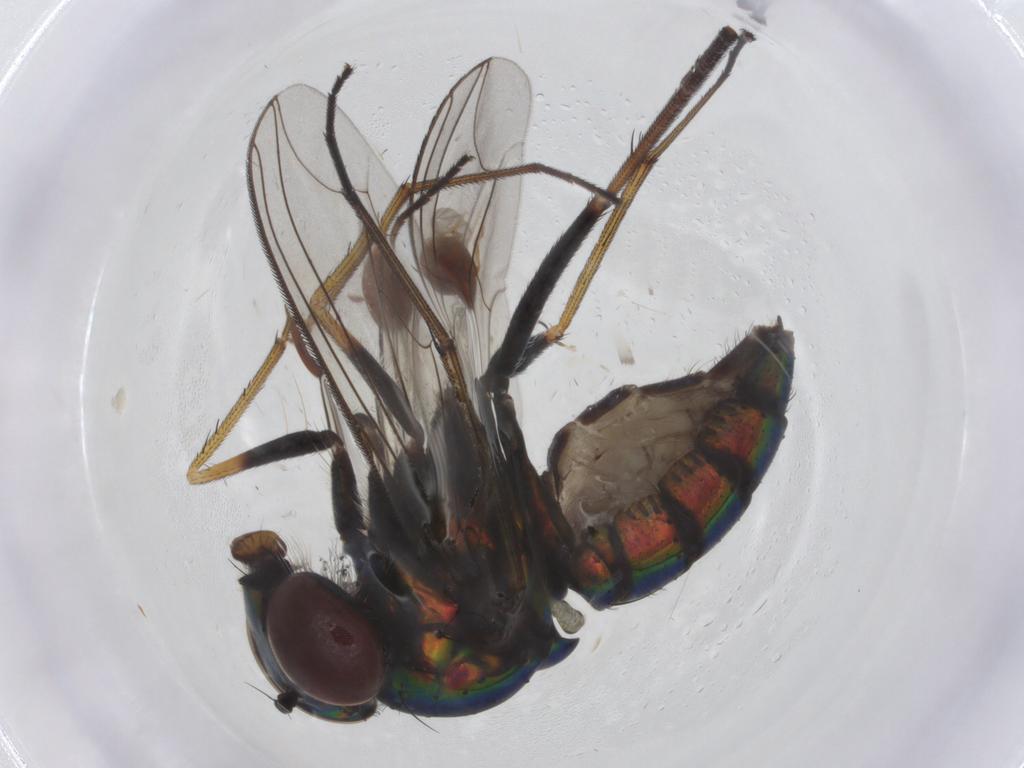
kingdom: Animalia
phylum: Arthropoda
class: Insecta
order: Diptera
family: Dolichopodidae
